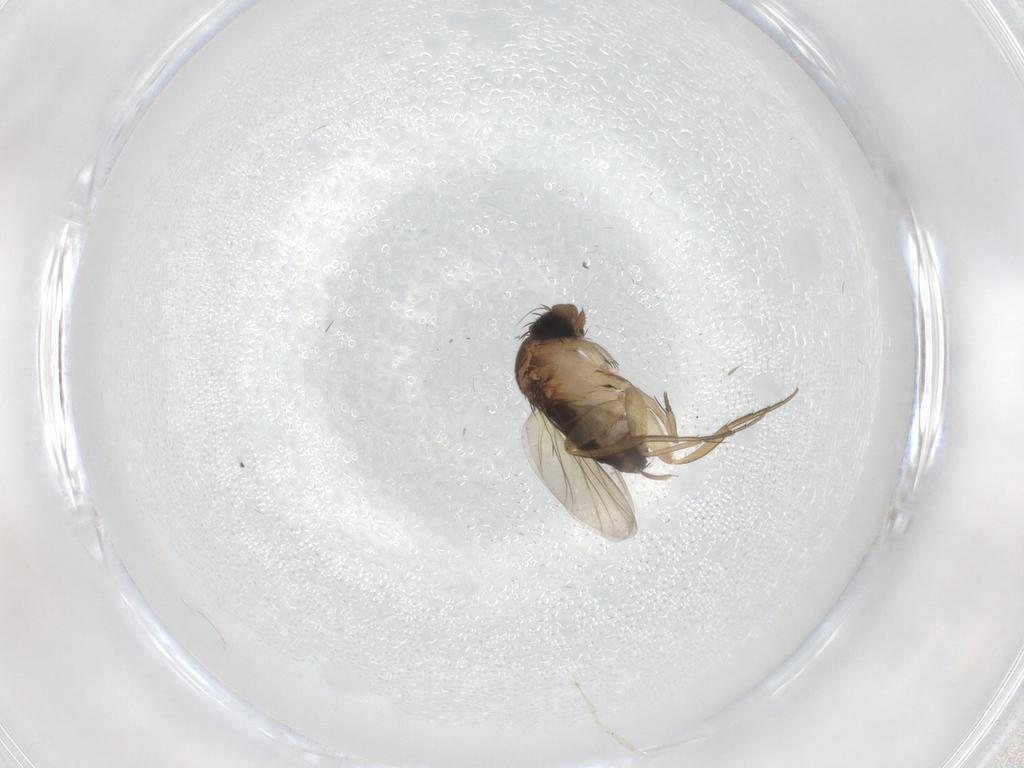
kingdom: Animalia
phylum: Arthropoda
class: Insecta
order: Diptera
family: Phoridae
